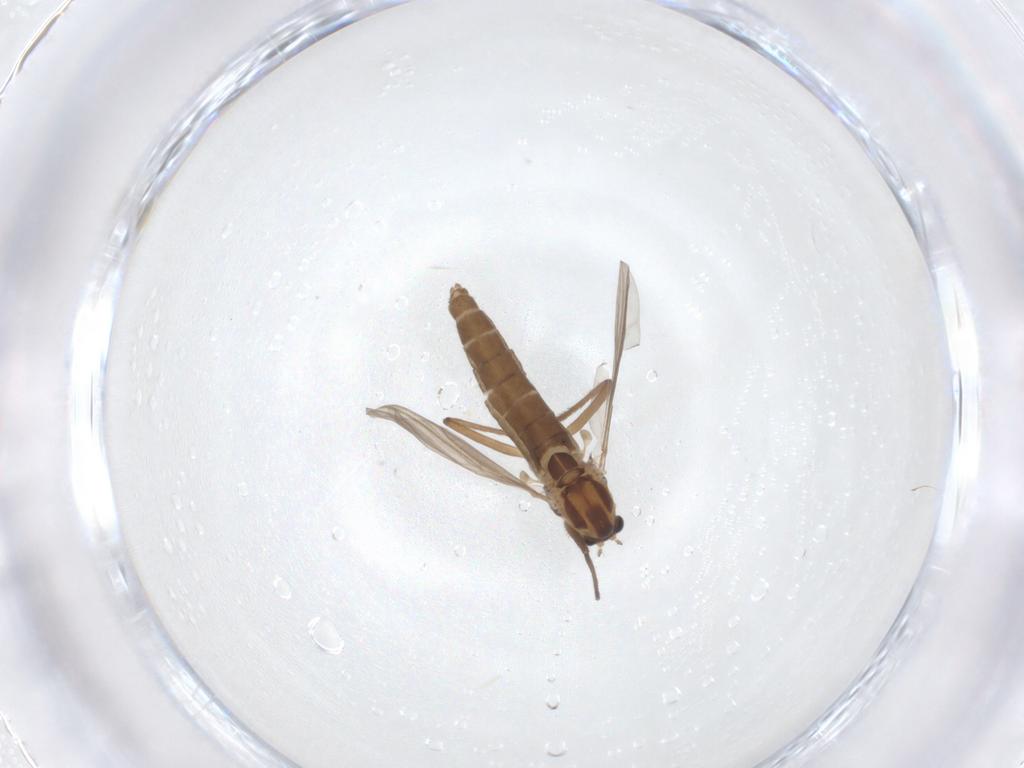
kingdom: Animalia
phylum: Arthropoda
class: Insecta
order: Diptera
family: Chironomidae
